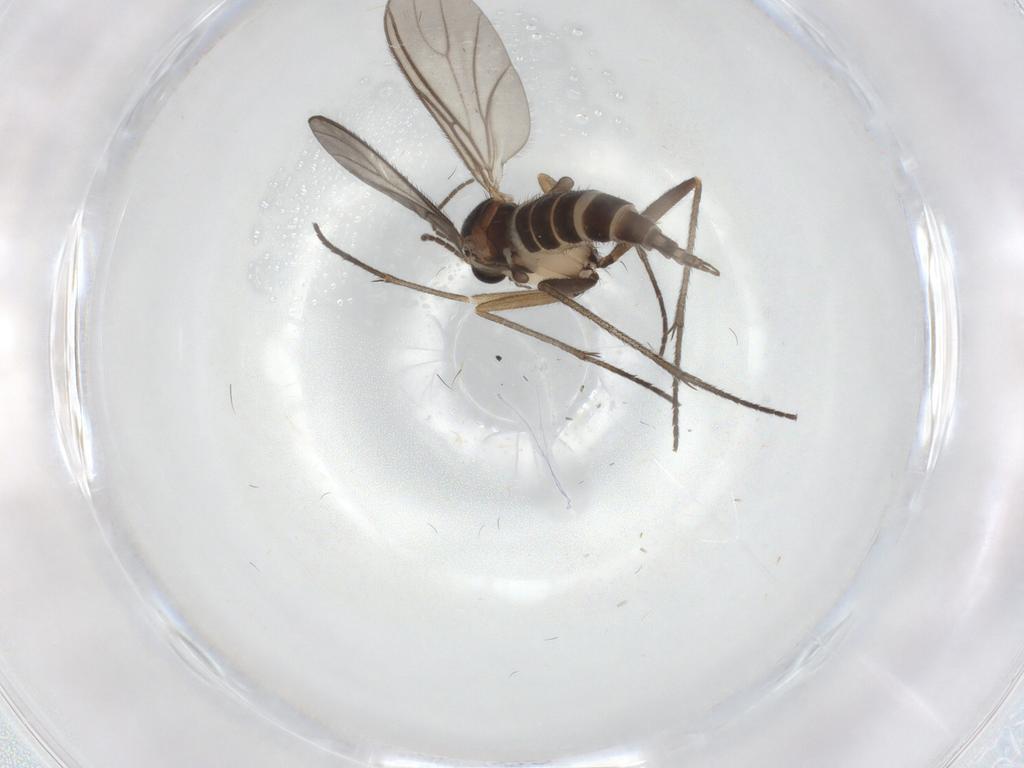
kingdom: Animalia
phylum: Arthropoda
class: Insecta
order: Diptera
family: Sciaridae
